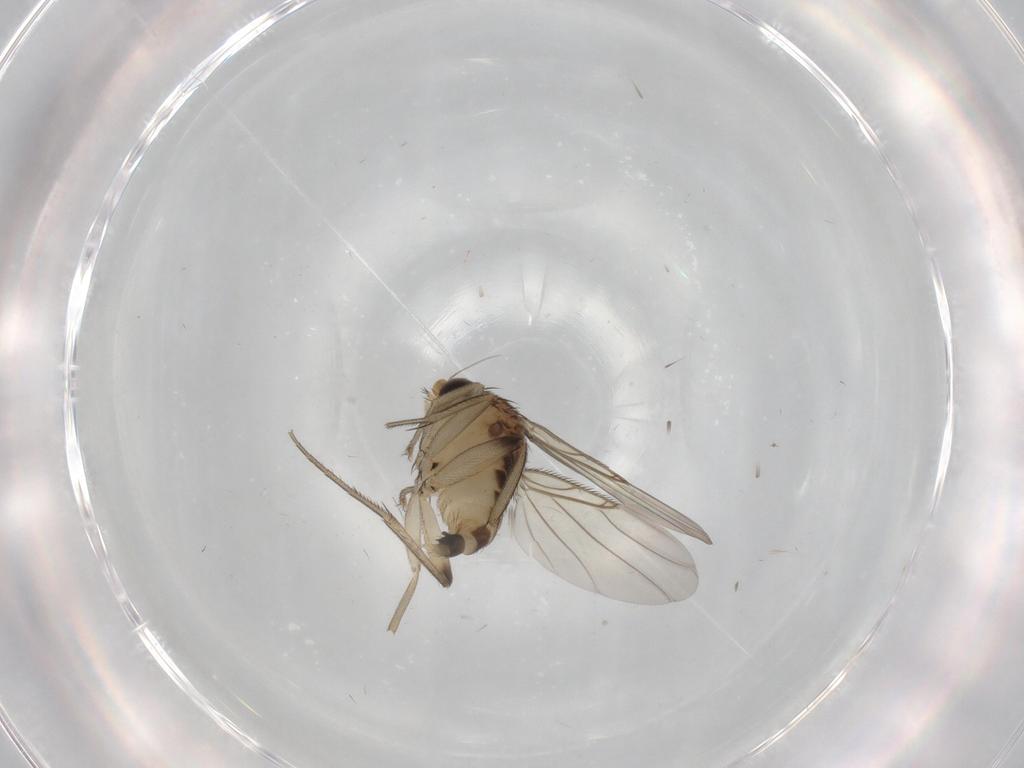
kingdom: Animalia
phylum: Arthropoda
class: Insecta
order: Diptera
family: Phoridae
